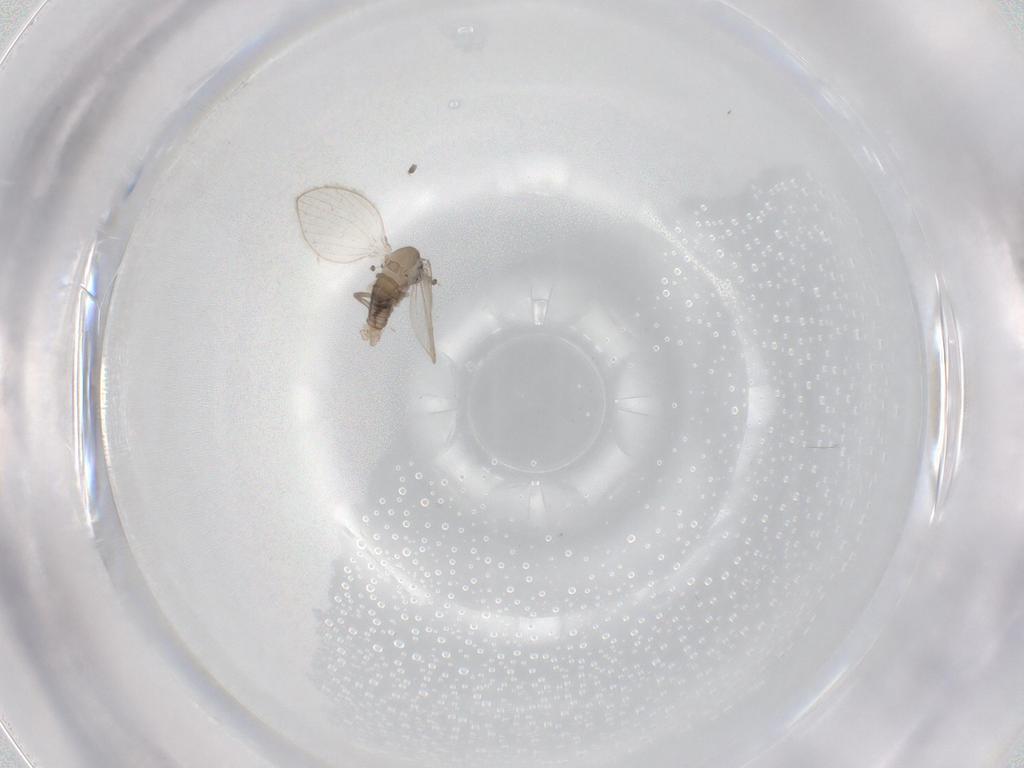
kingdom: Animalia
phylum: Arthropoda
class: Insecta
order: Diptera
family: Psychodidae
